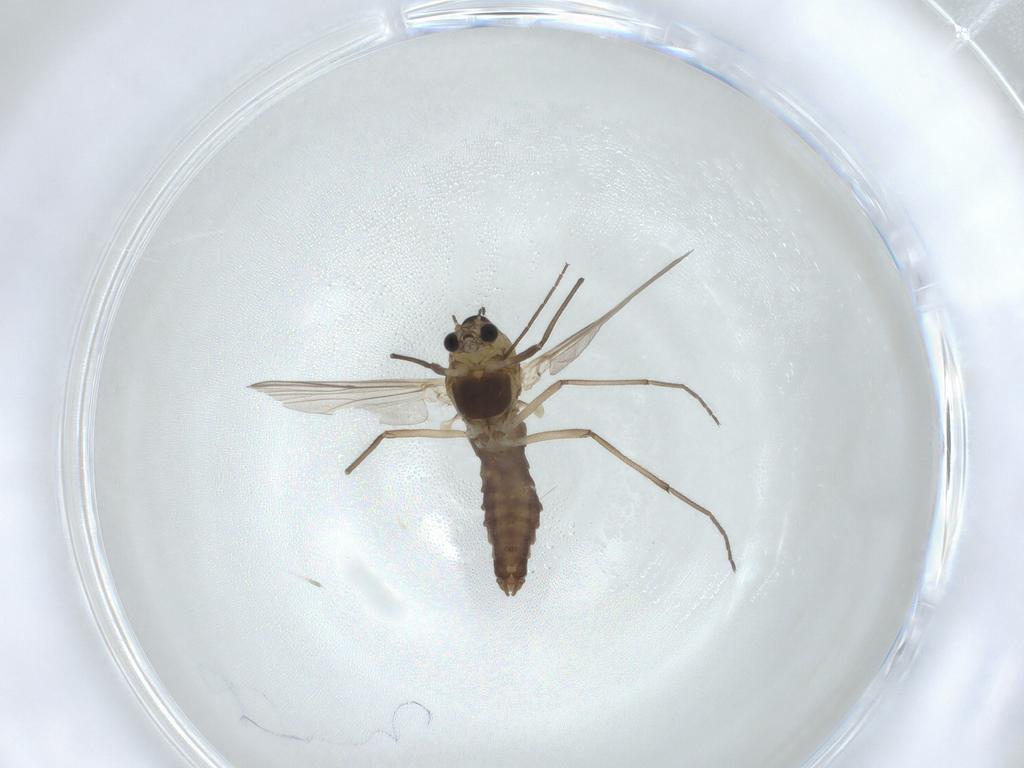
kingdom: Animalia
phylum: Arthropoda
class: Insecta
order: Diptera
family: Chironomidae
